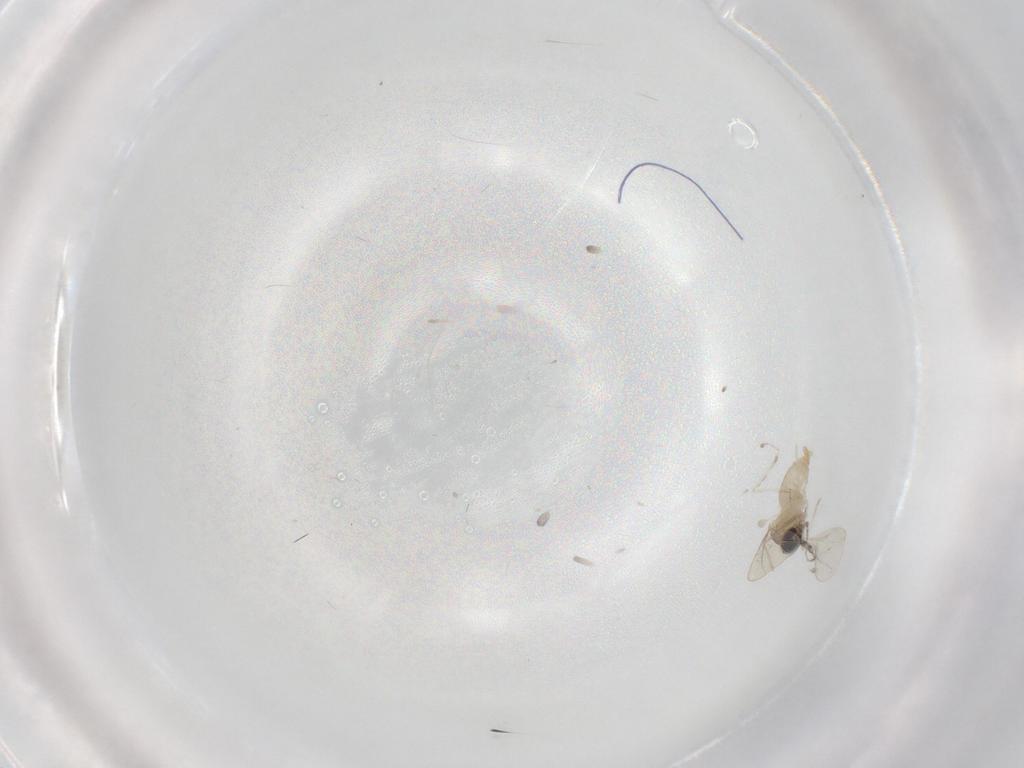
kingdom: Animalia
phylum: Arthropoda
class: Insecta
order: Diptera
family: Cecidomyiidae
